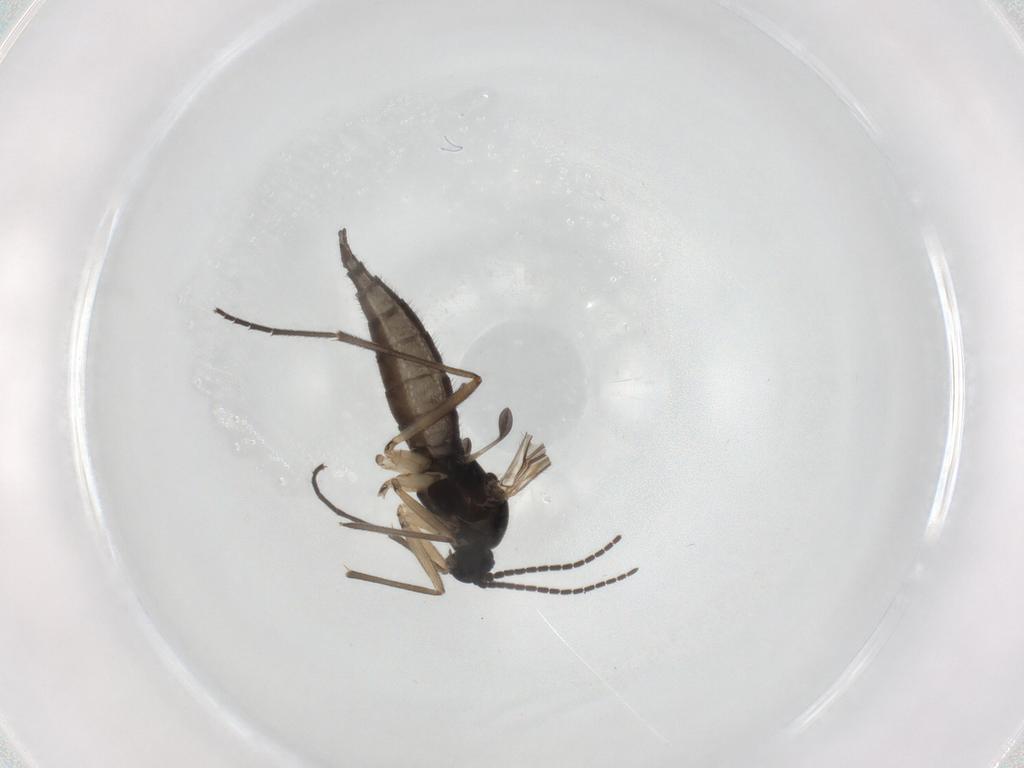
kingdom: Animalia
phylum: Arthropoda
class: Insecta
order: Diptera
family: Sciaridae
